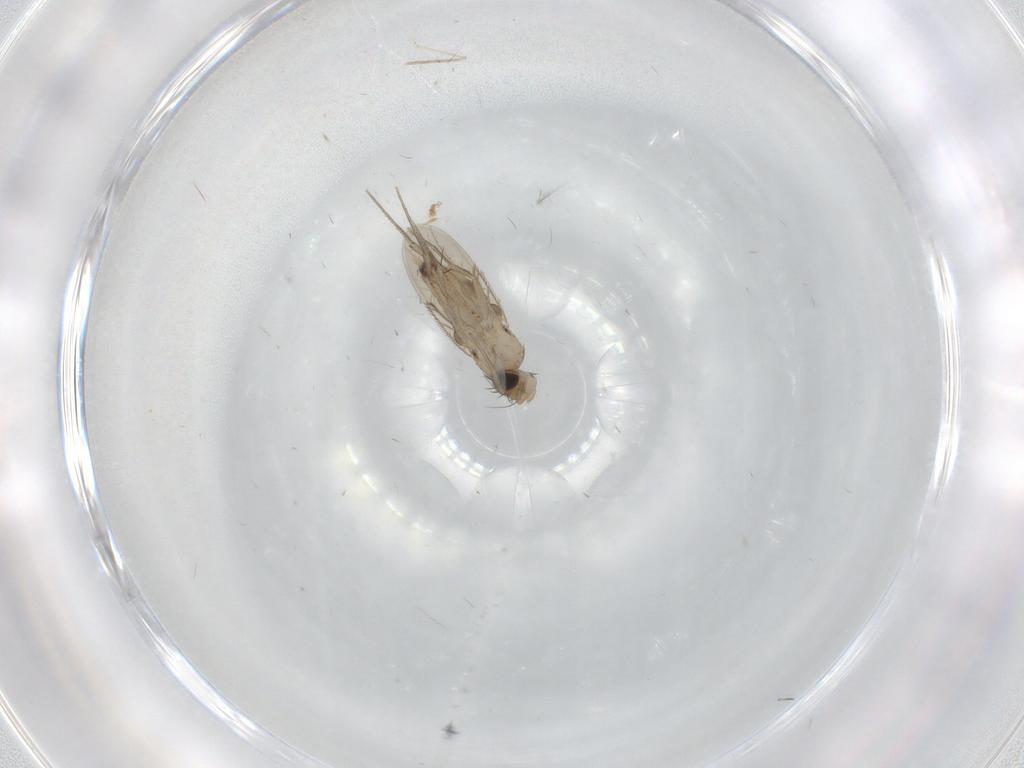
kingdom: Animalia
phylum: Arthropoda
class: Insecta
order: Diptera
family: Phoridae
